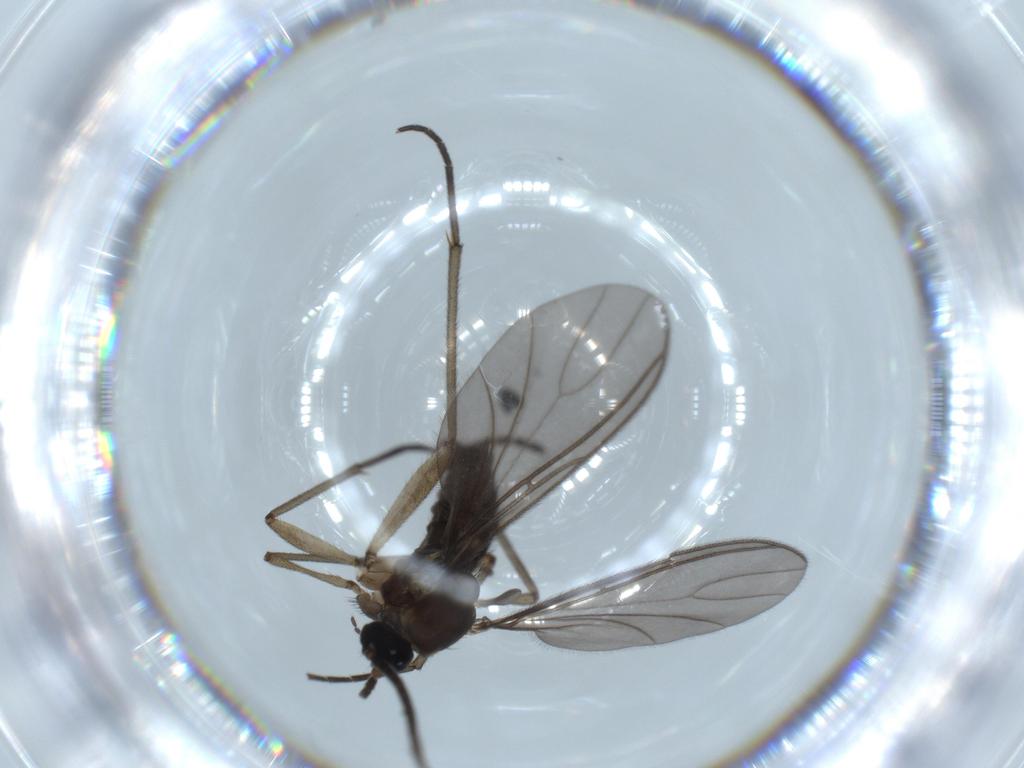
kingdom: Animalia
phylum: Arthropoda
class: Insecta
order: Diptera
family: Sciaridae
